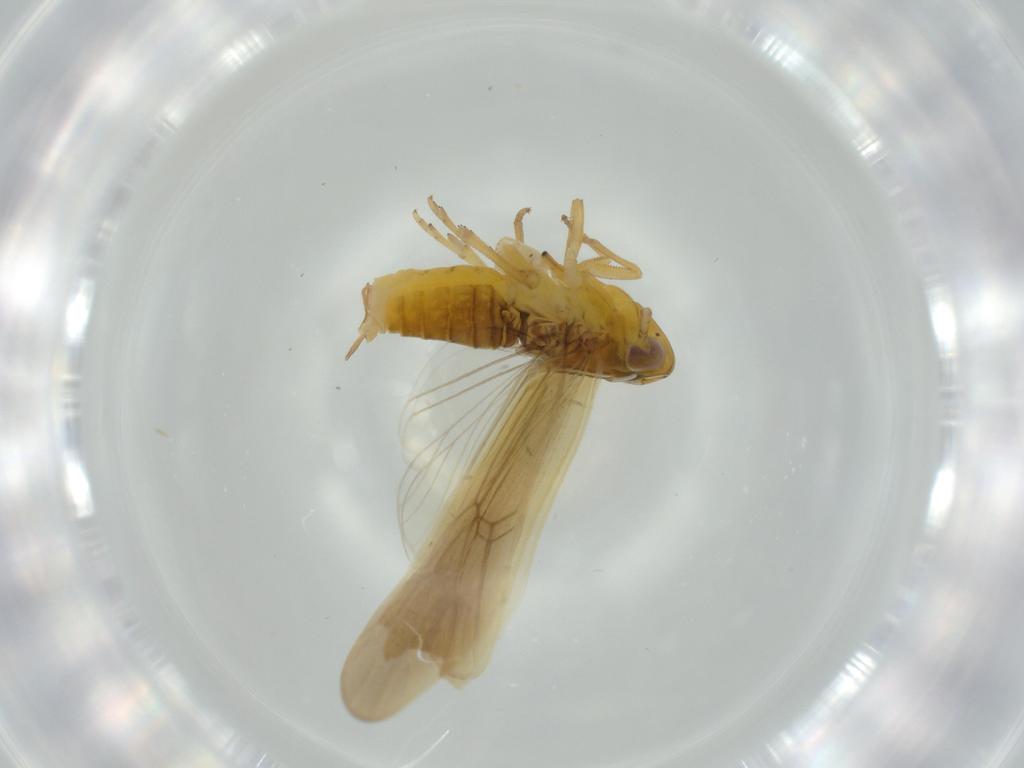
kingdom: Animalia
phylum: Arthropoda
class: Insecta
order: Hemiptera
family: Delphacidae
